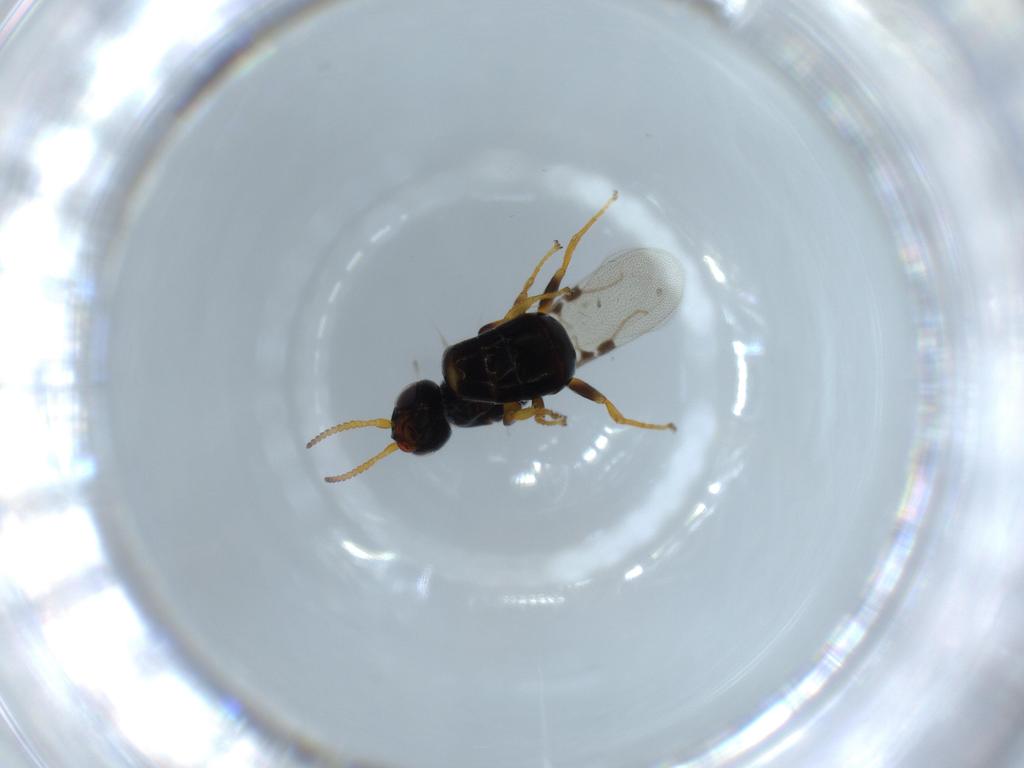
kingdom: Animalia
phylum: Arthropoda
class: Insecta
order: Hymenoptera
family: Bethylidae
